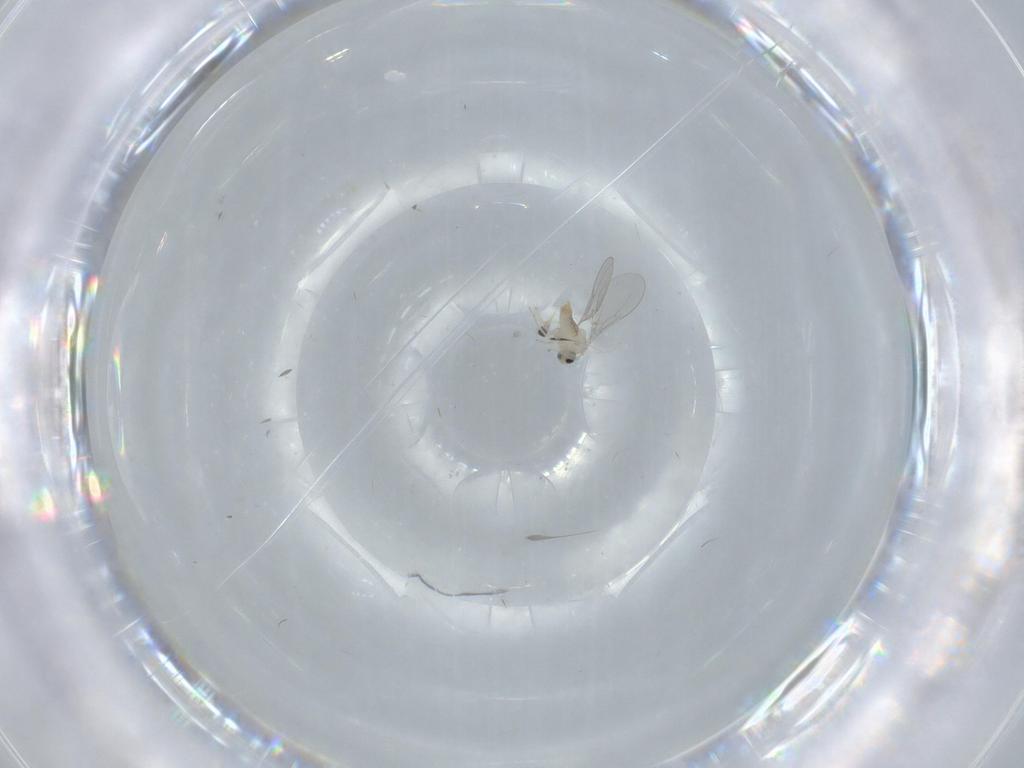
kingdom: Animalia
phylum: Arthropoda
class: Insecta
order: Diptera
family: Cecidomyiidae
